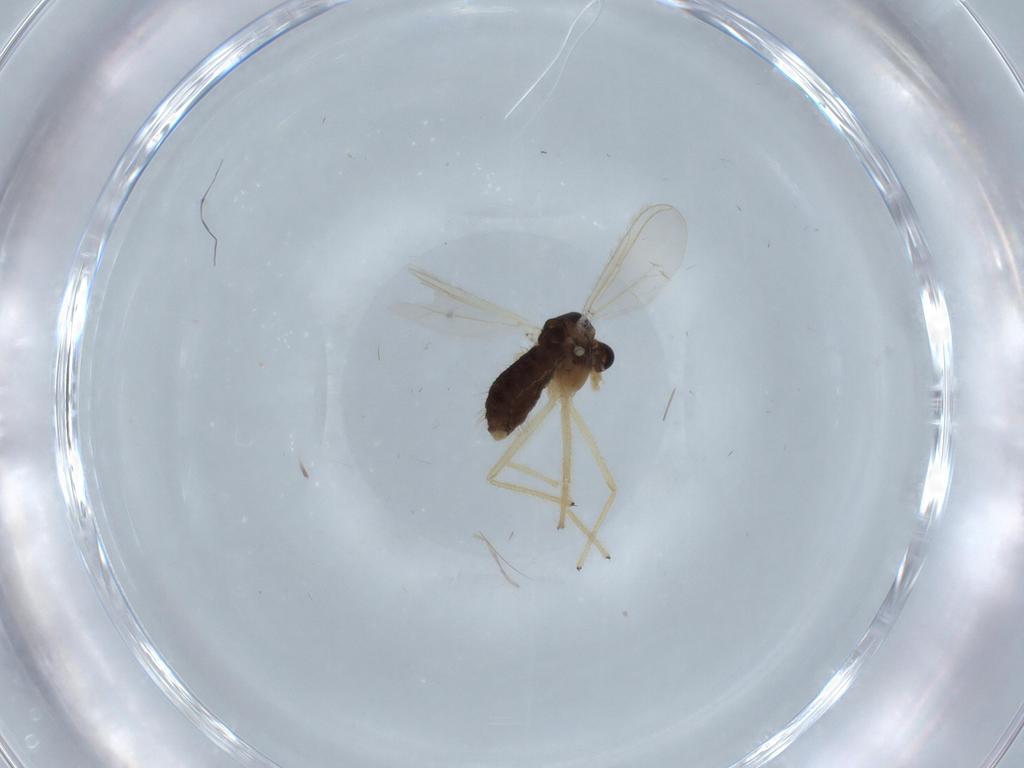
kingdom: Animalia
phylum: Arthropoda
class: Insecta
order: Diptera
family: Chironomidae
